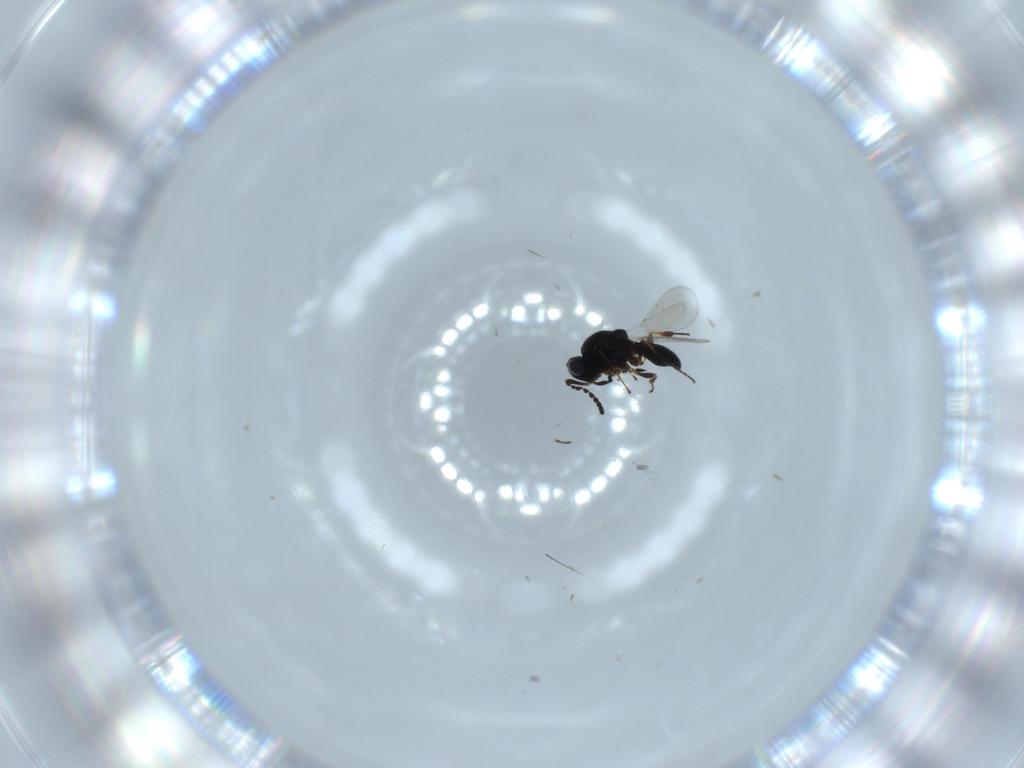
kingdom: Animalia
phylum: Arthropoda
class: Insecta
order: Hymenoptera
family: Platygastridae
